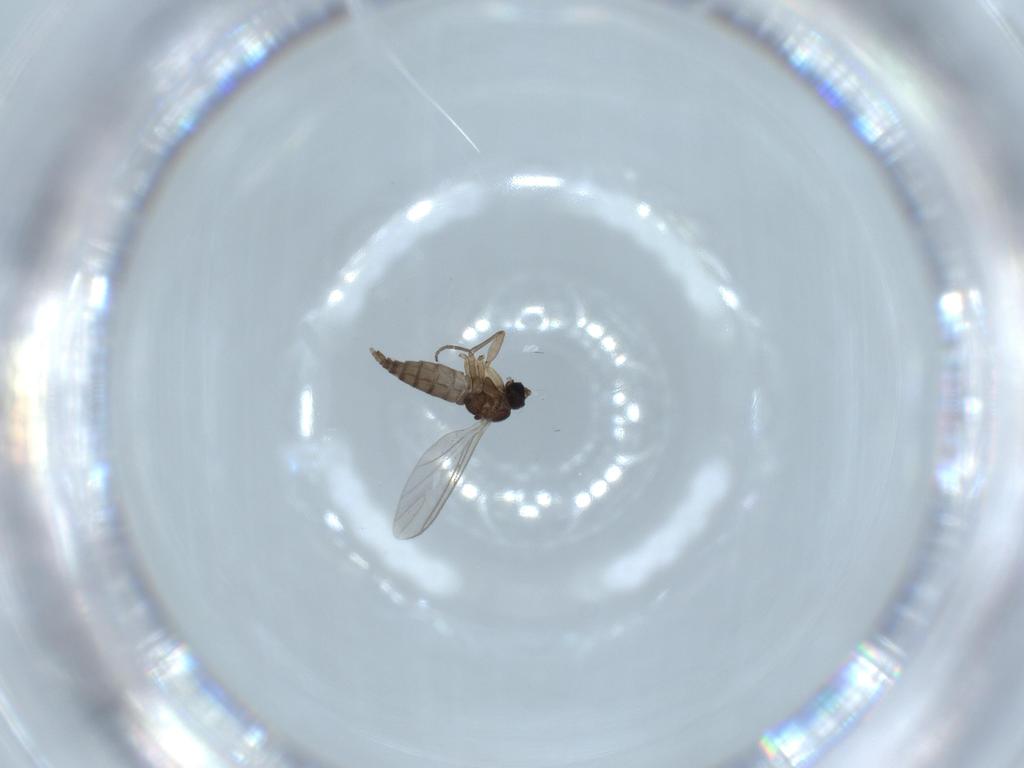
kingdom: Animalia
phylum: Arthropoda
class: Insecta
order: Diptera
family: Sciaridae
